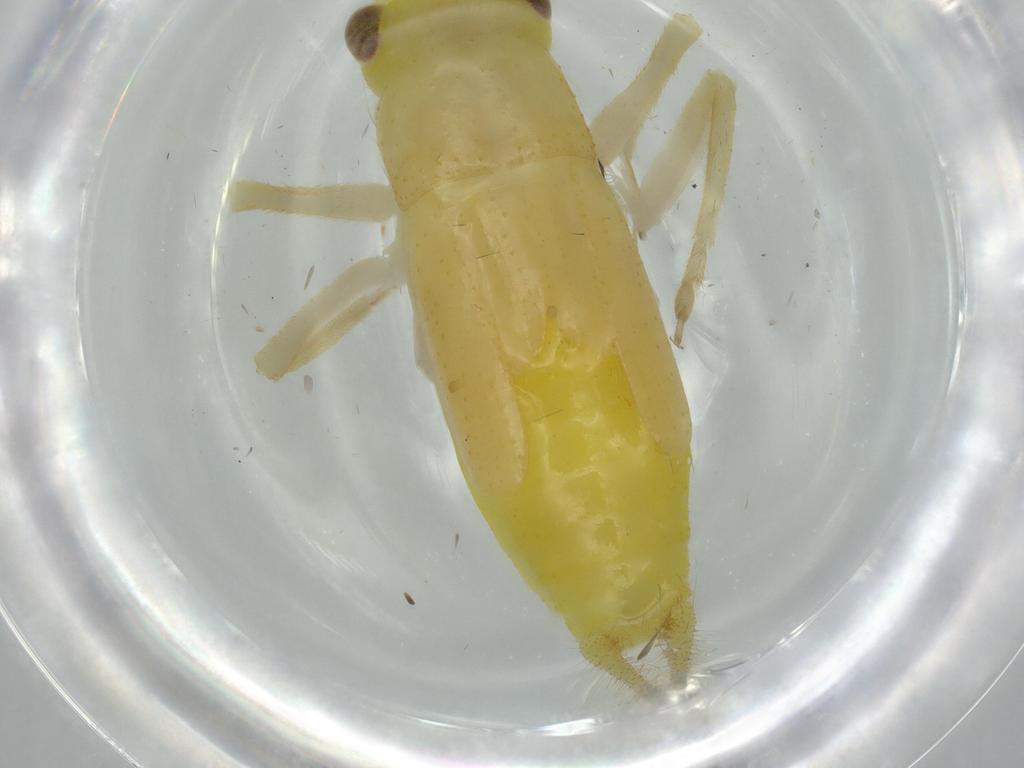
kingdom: Animalia
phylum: Arthropoda
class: Insecta
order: Orthoptera
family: Trigonidiidae
